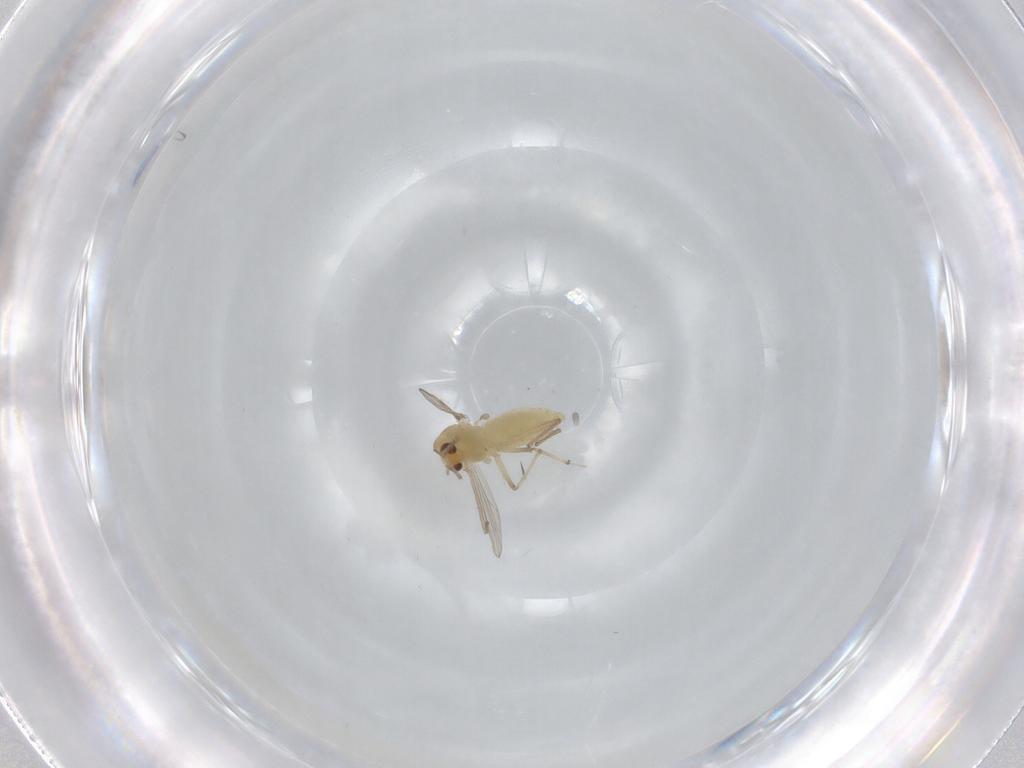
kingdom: Animalia
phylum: Arthropoda
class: Insecta
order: Diptera
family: Chironomidae
